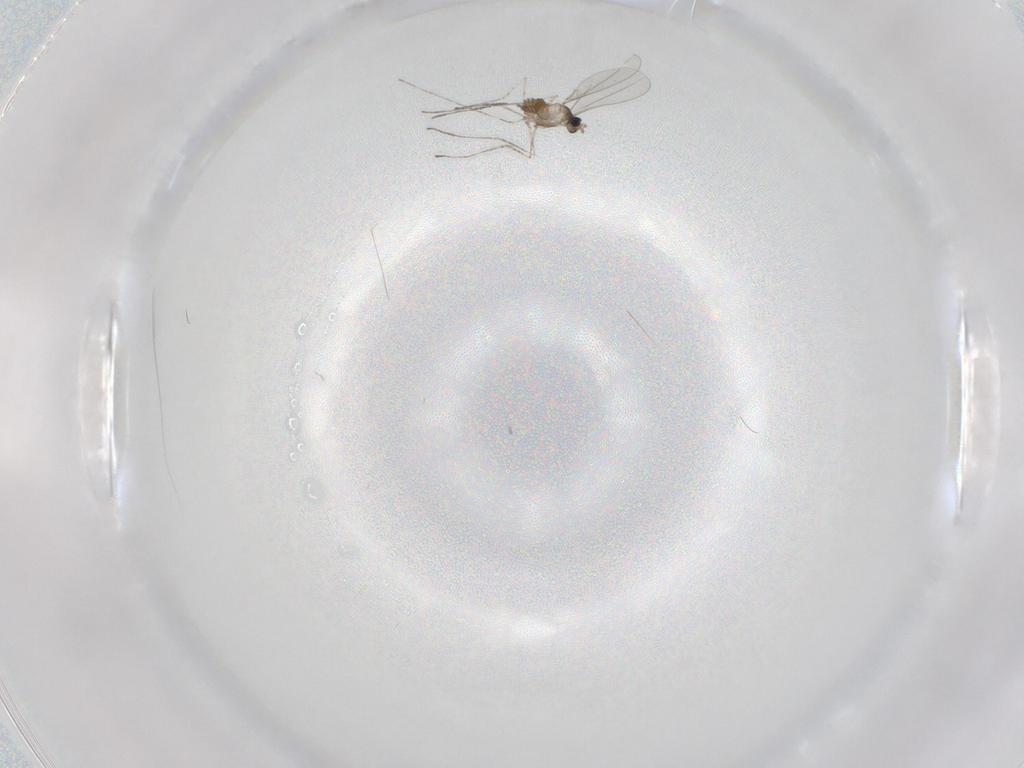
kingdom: Animalia
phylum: Arthropoda
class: Insecta
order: Diptera
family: Cecidomyiidae
